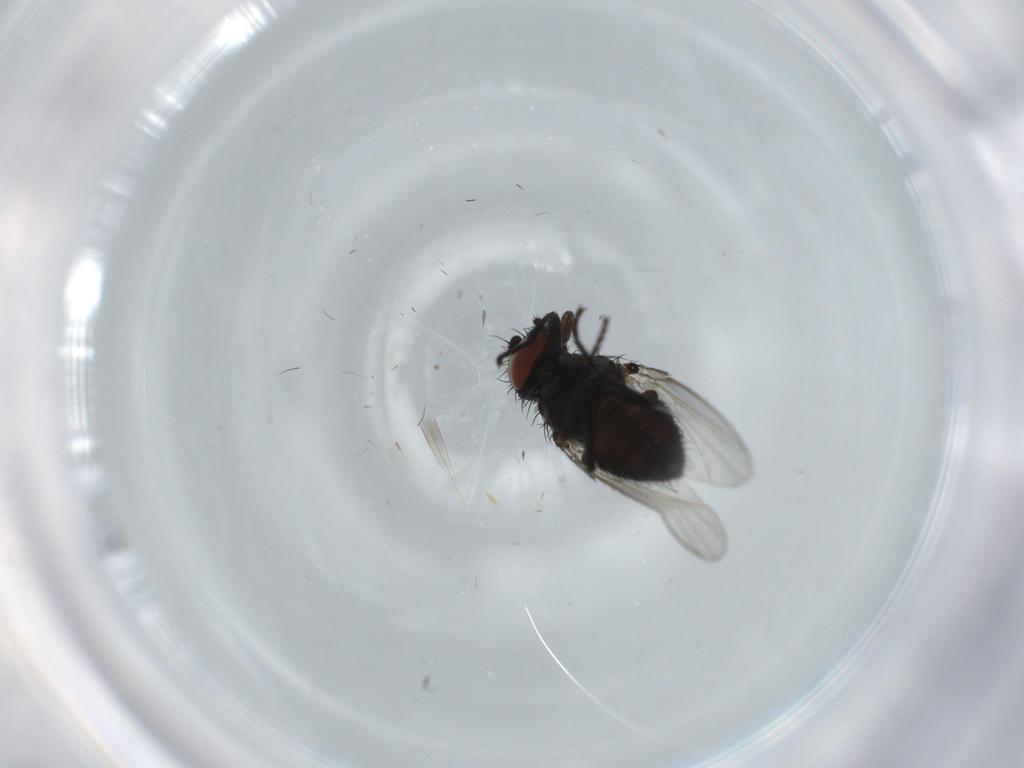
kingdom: Animalia
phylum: Arthropoda
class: Insecta
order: Diptera
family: Milichiidae
